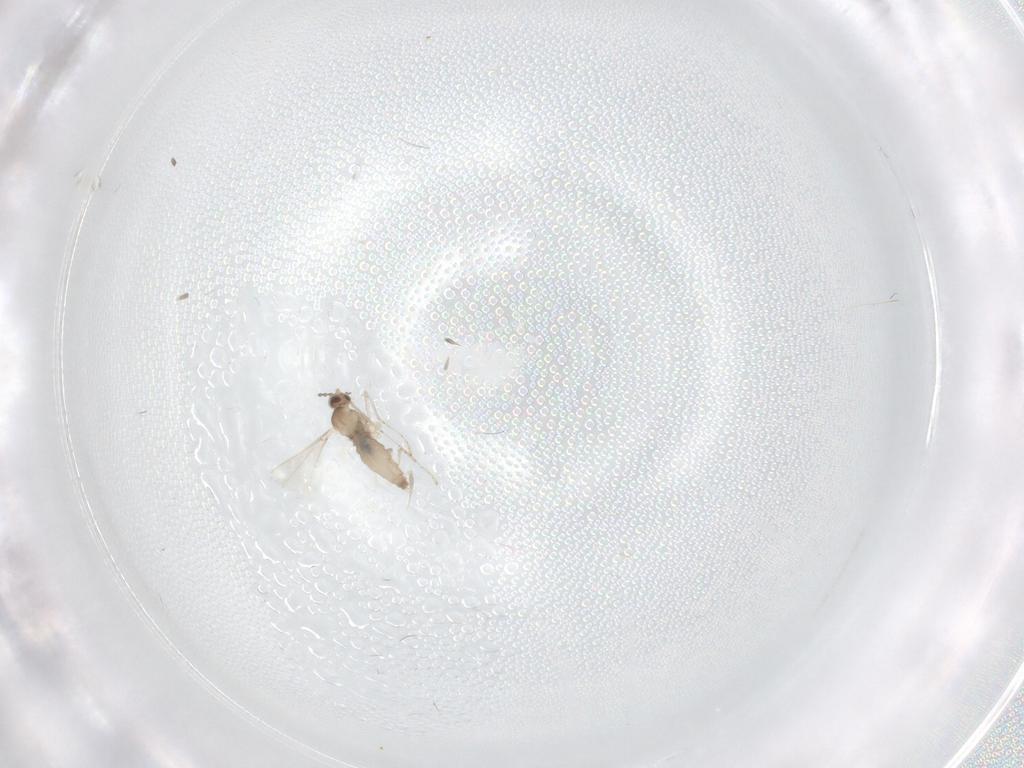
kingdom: Animalia
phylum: Arthropoda
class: Insecta
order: Diptera
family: Cecidomyiidae
